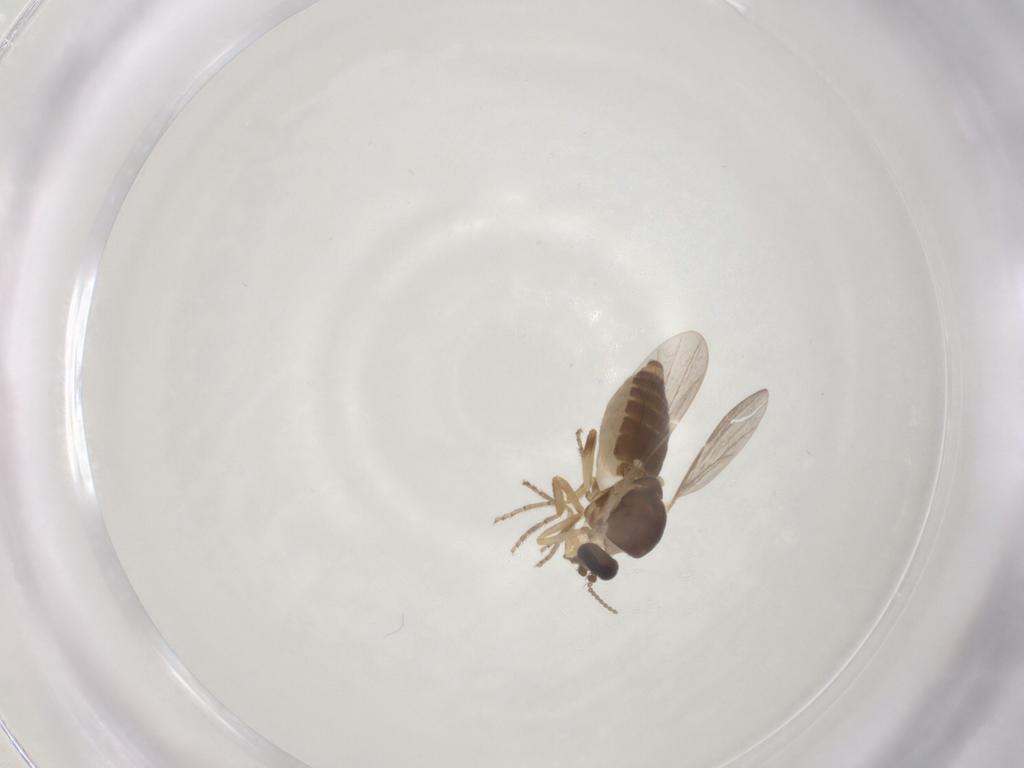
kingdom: Animalia
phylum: Arthropoda
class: Insecta
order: Diptera
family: Ceratopogonidae
